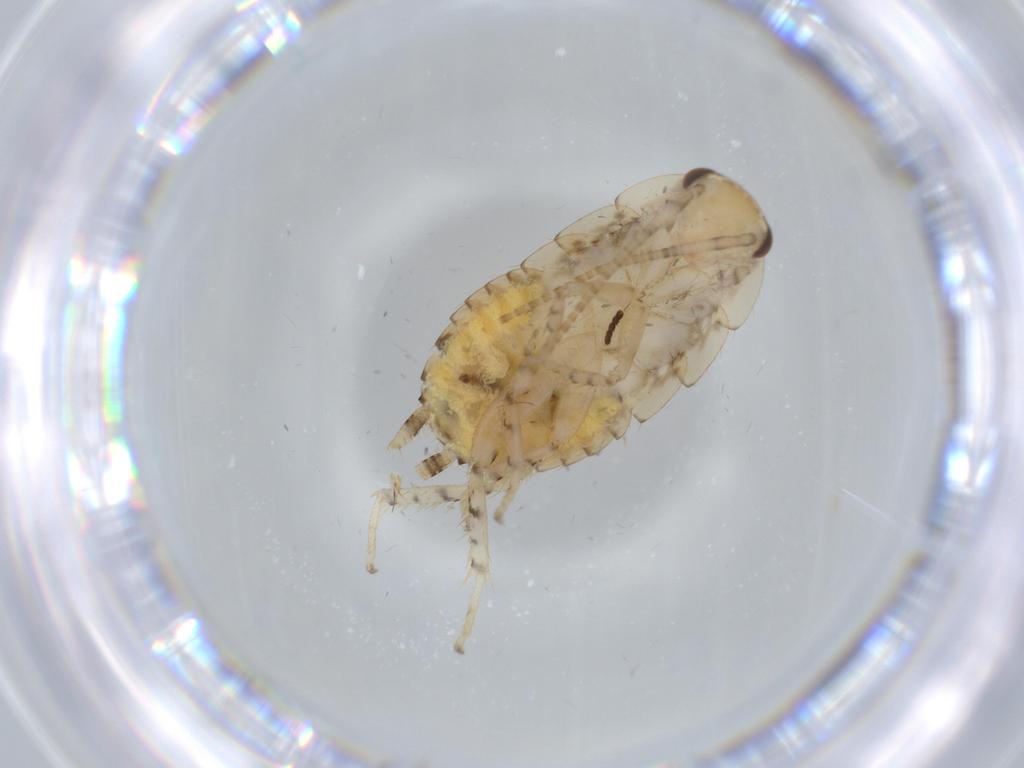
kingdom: Animalia
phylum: Arthropoda
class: Insecta
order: Blattodea
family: Ectobiidae
